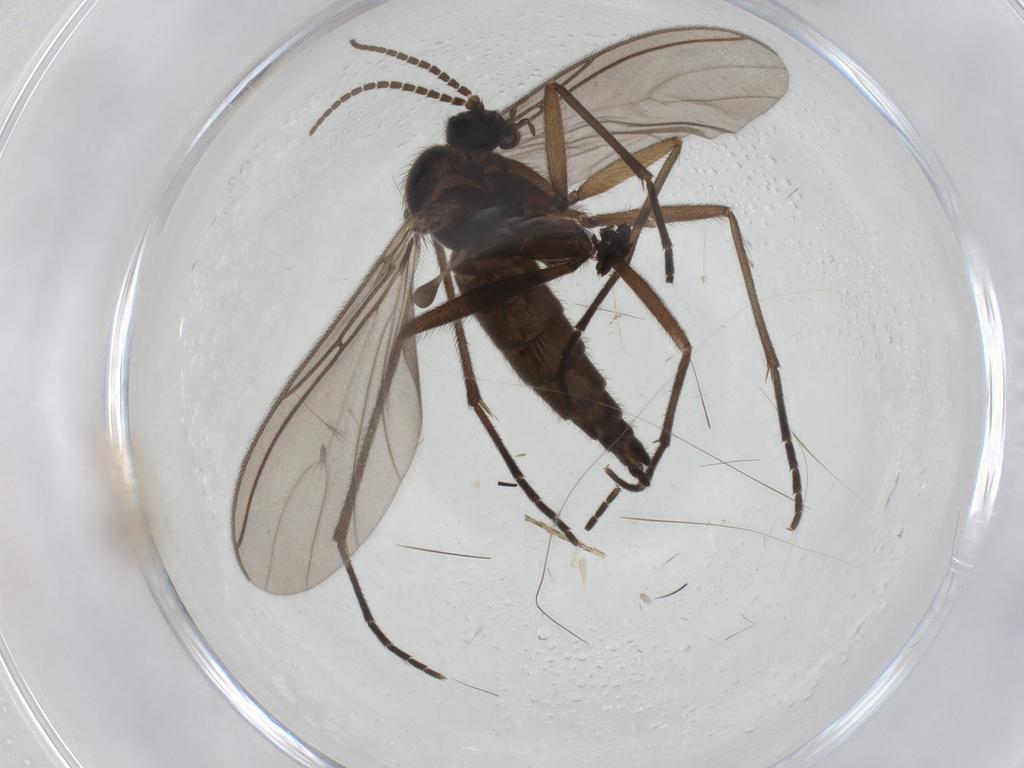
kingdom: Animalia
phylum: Arthropoda
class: Insecta
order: Diptera
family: Chironomidae
